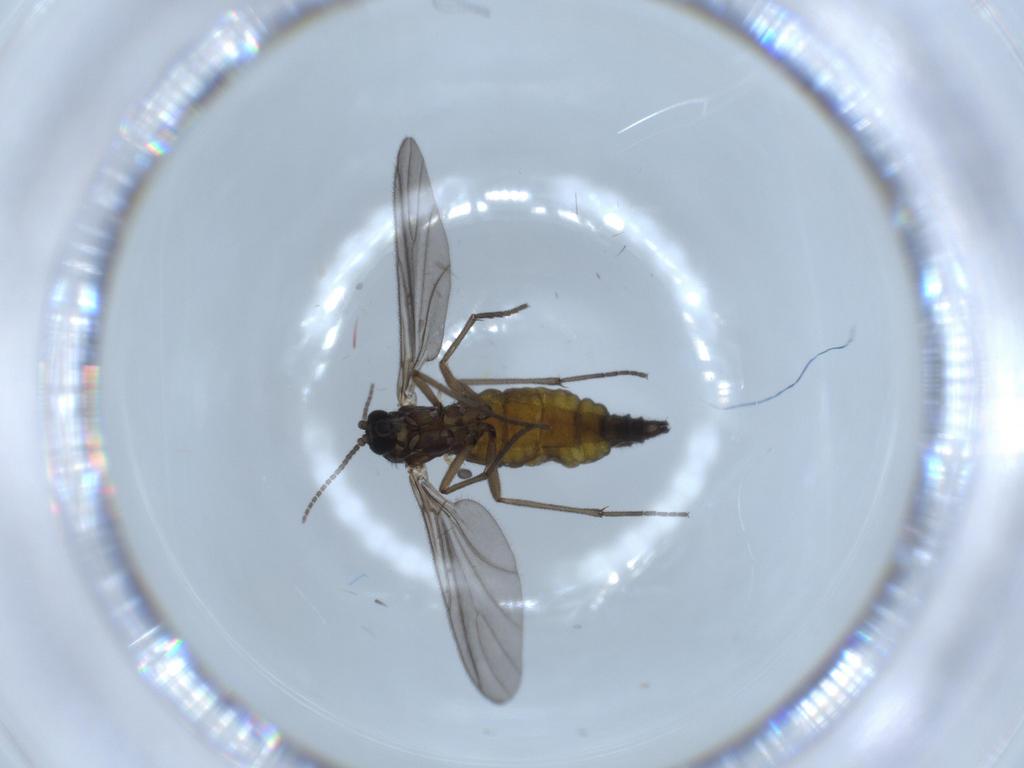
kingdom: Animalia
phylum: Arthropoda
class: Insecta
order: Diptera
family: Sciaridae
